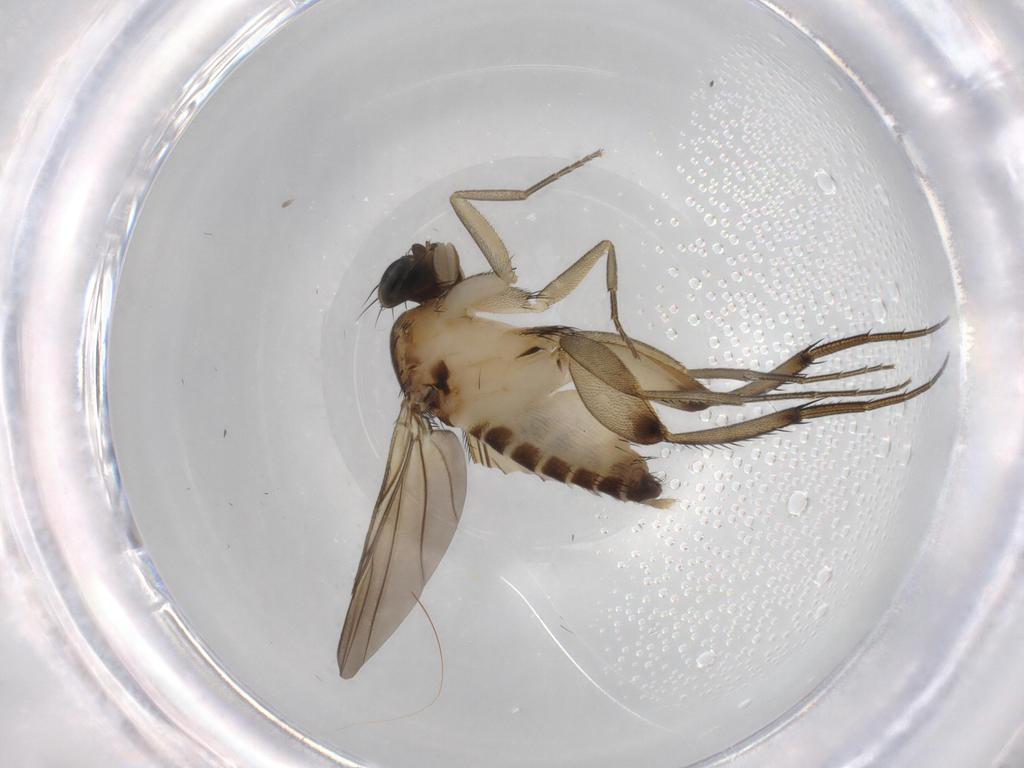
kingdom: Animalia
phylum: Arthropoda
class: Insecta
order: Diptera
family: Phoridae
